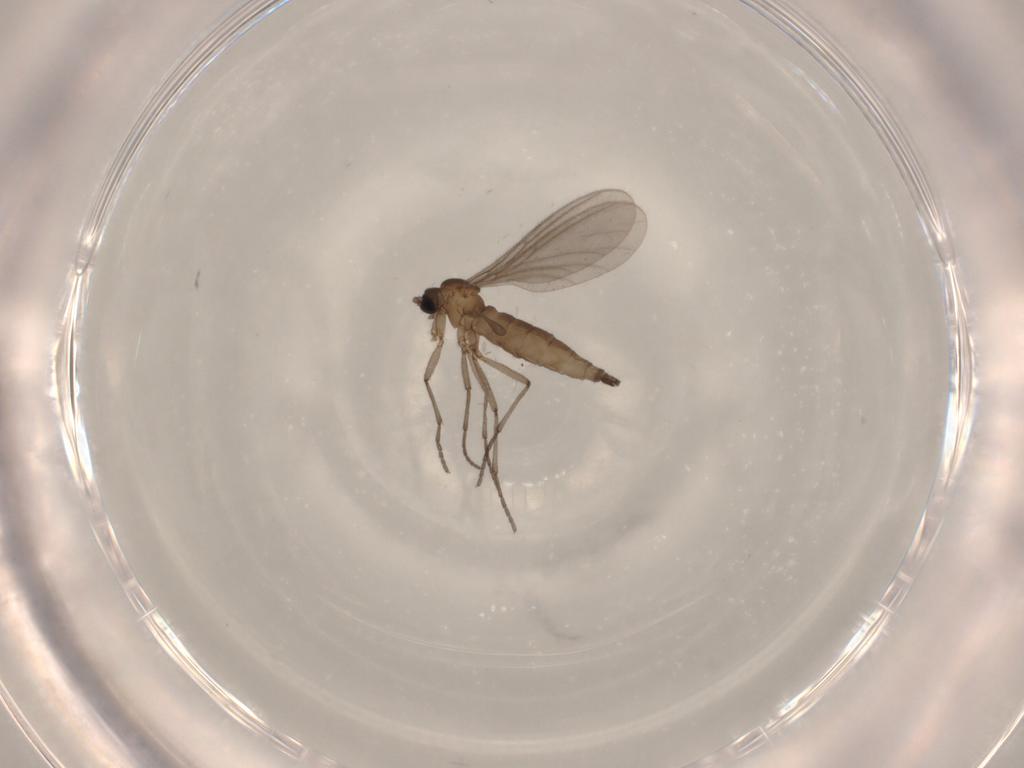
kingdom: Animalia
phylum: Arthropoda
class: Insecta
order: Diptera
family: Sciaridae
